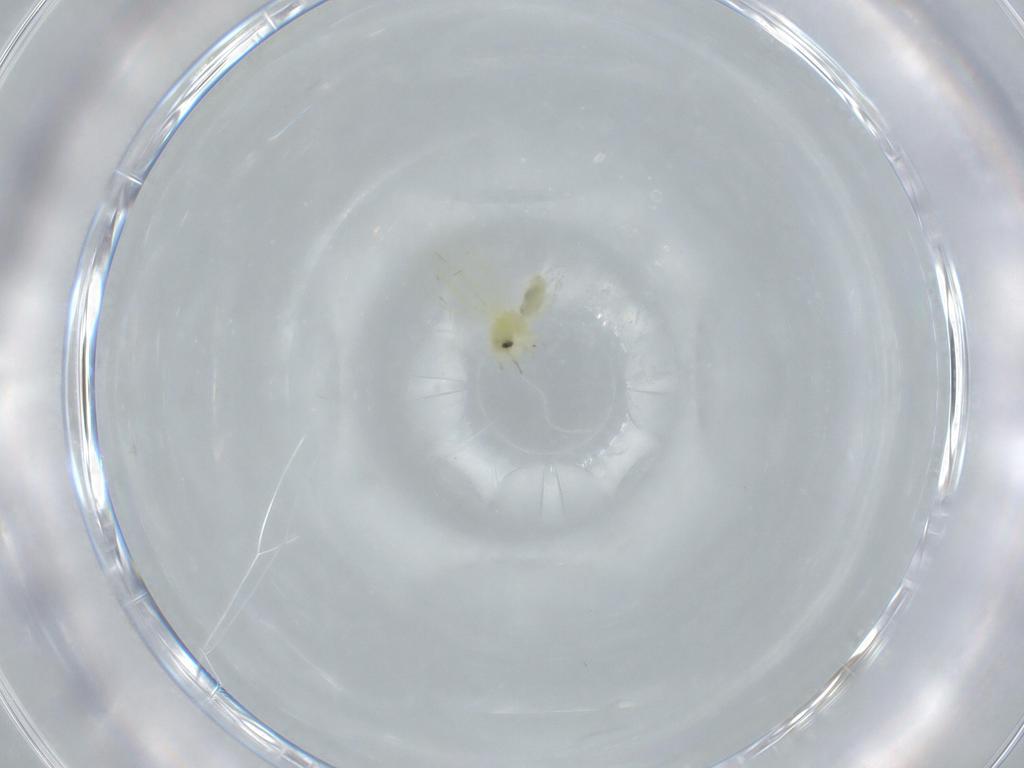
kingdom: Animalia
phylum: Arthropoda
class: Insecta
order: Hemiptera
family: Aleyrodidae
